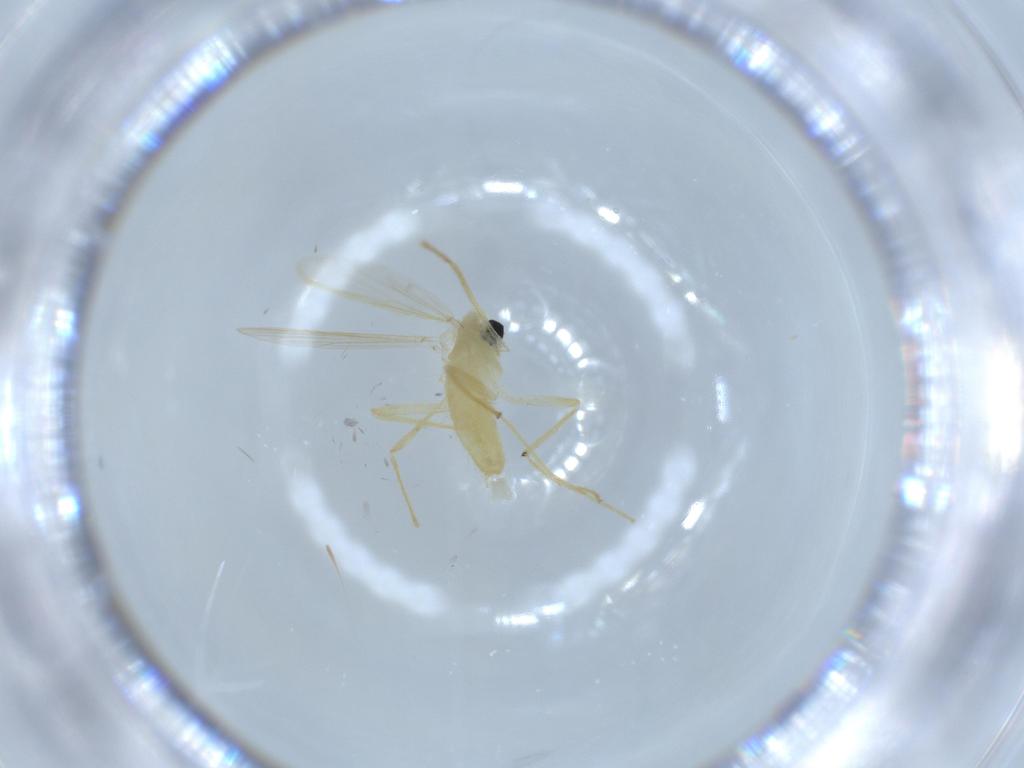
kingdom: Animalia
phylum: Arthropoda
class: Insecta
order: Diptera
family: Chironomidae
